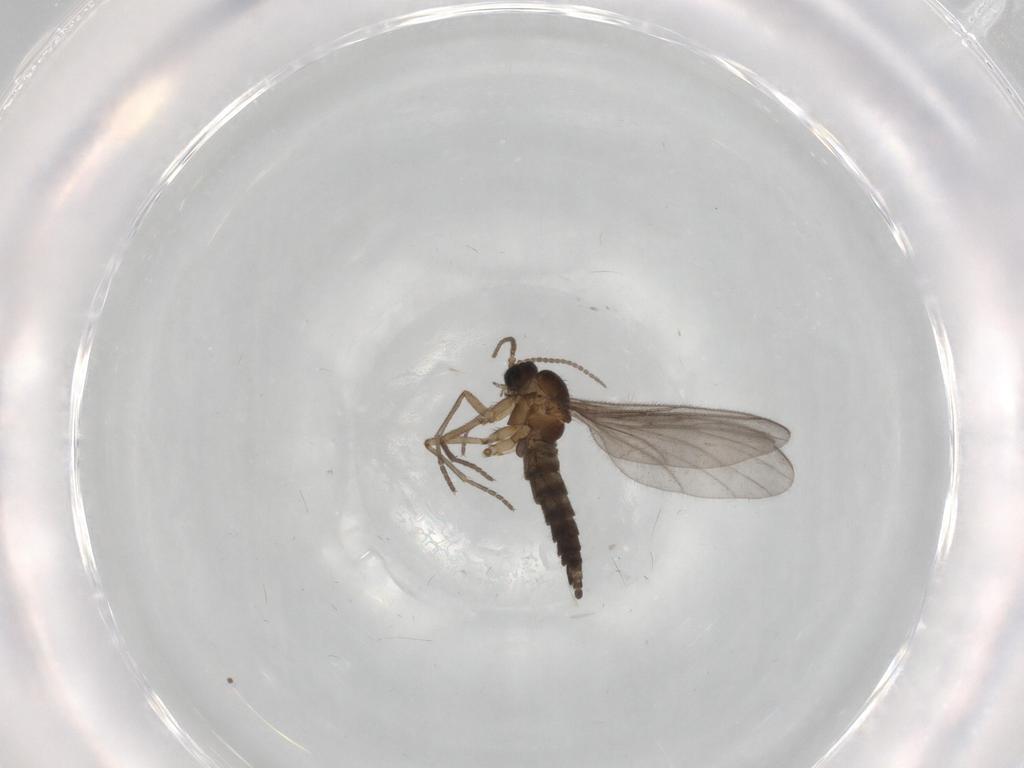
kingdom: Animalia
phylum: Arthropoda
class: Insecta
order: Diptera
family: Sciaridae
